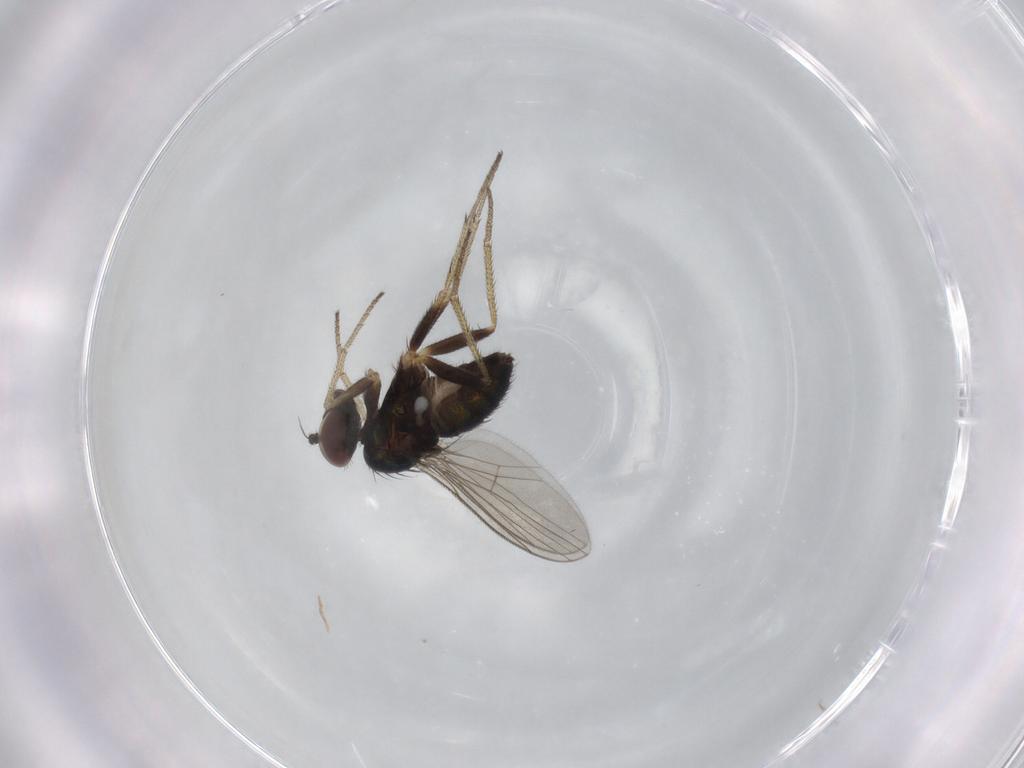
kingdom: Animalia
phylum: Arthropoda
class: Insecta
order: Diptera
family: Dolichopodidae
